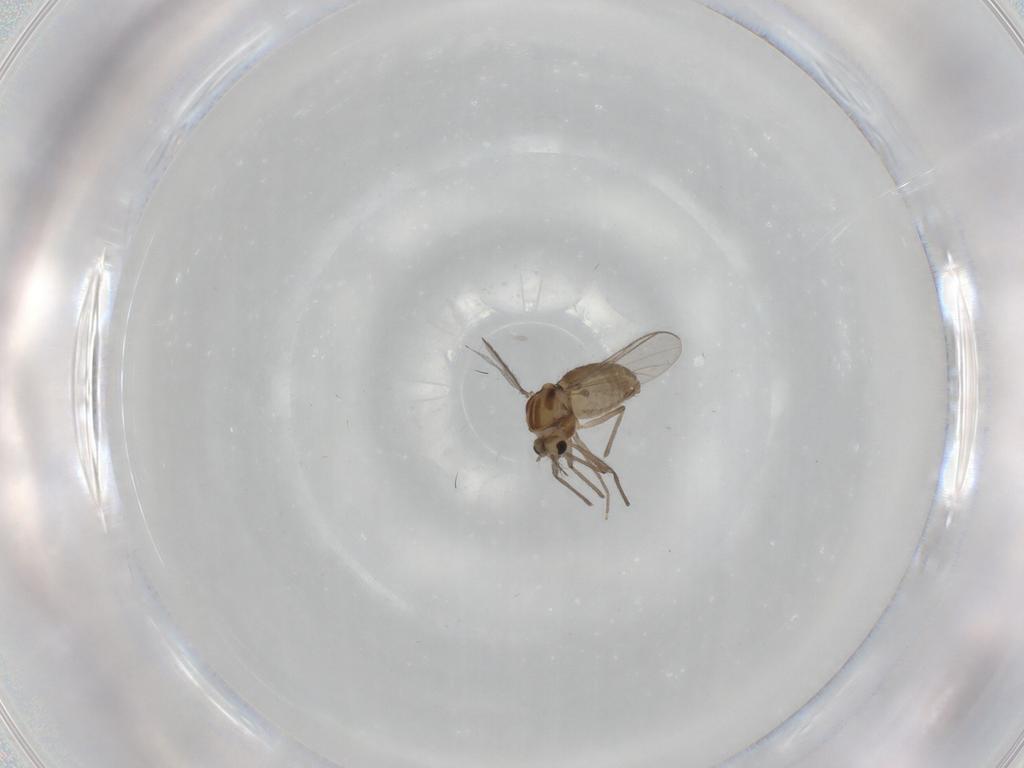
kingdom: Animalia
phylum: Arthropoda
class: Insecta
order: Diptera
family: Chironomidae
